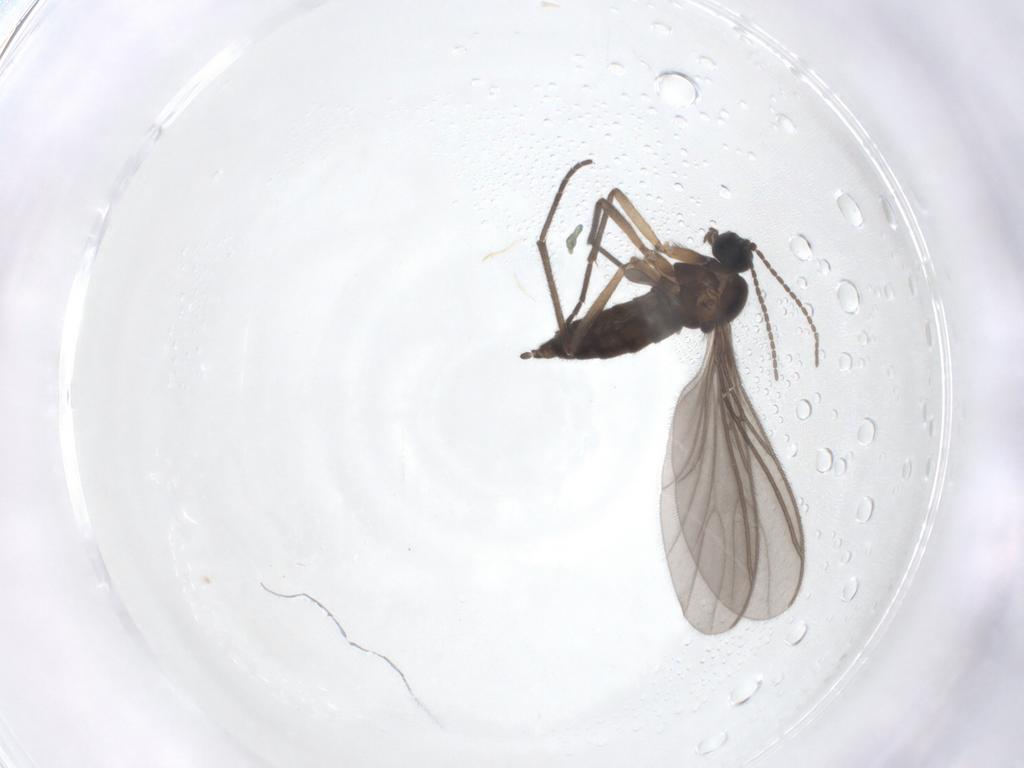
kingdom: Animalia
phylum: Arthropoda
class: Insecta
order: Diptera
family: Sciaridae
